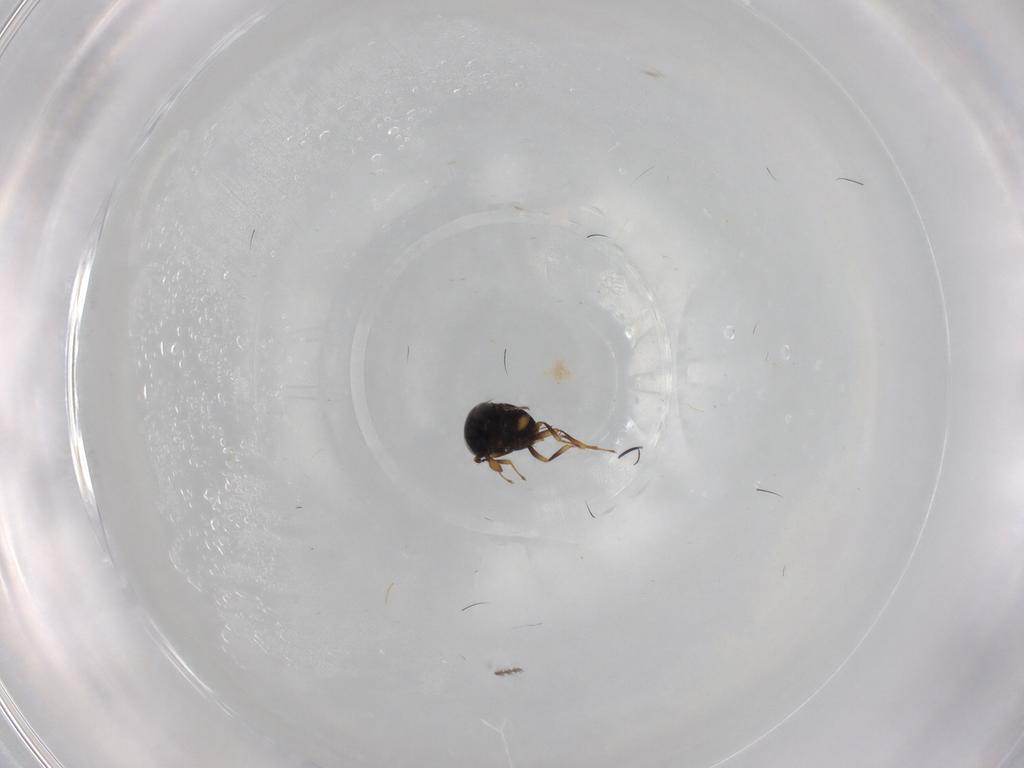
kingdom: Animalia
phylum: Arthropoda
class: Insecta
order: Hymenoptera
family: Scelionidae
